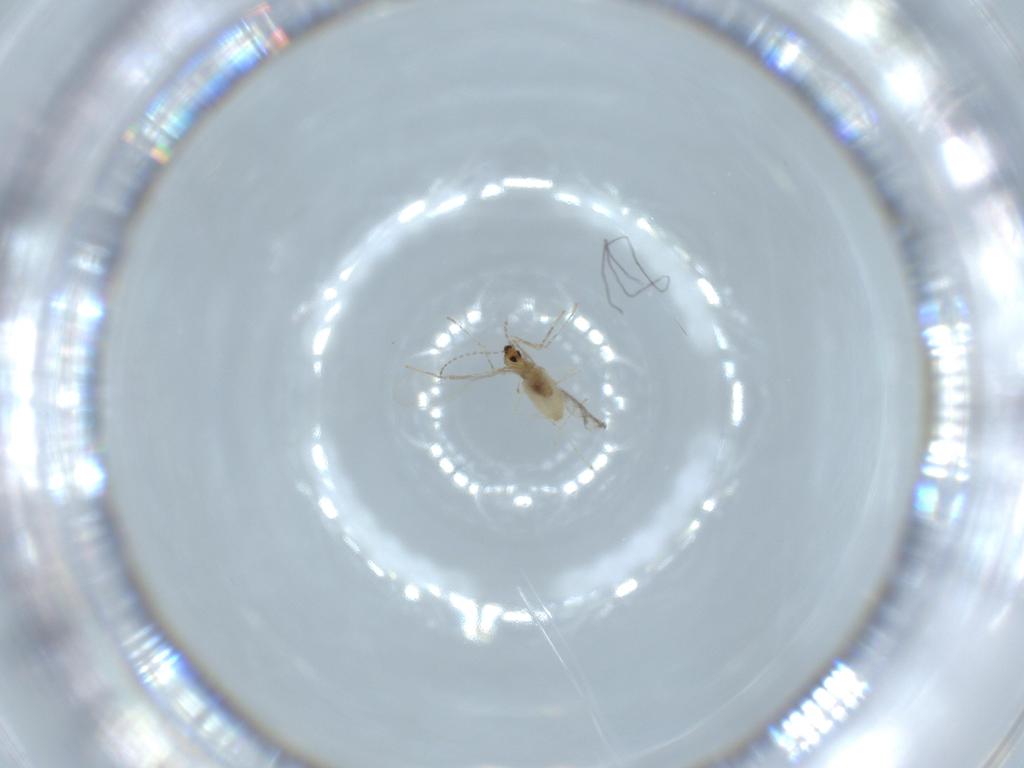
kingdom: Animalia
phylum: Arthropoda
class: Insecta
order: Diptera
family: Cecidomyiidae
